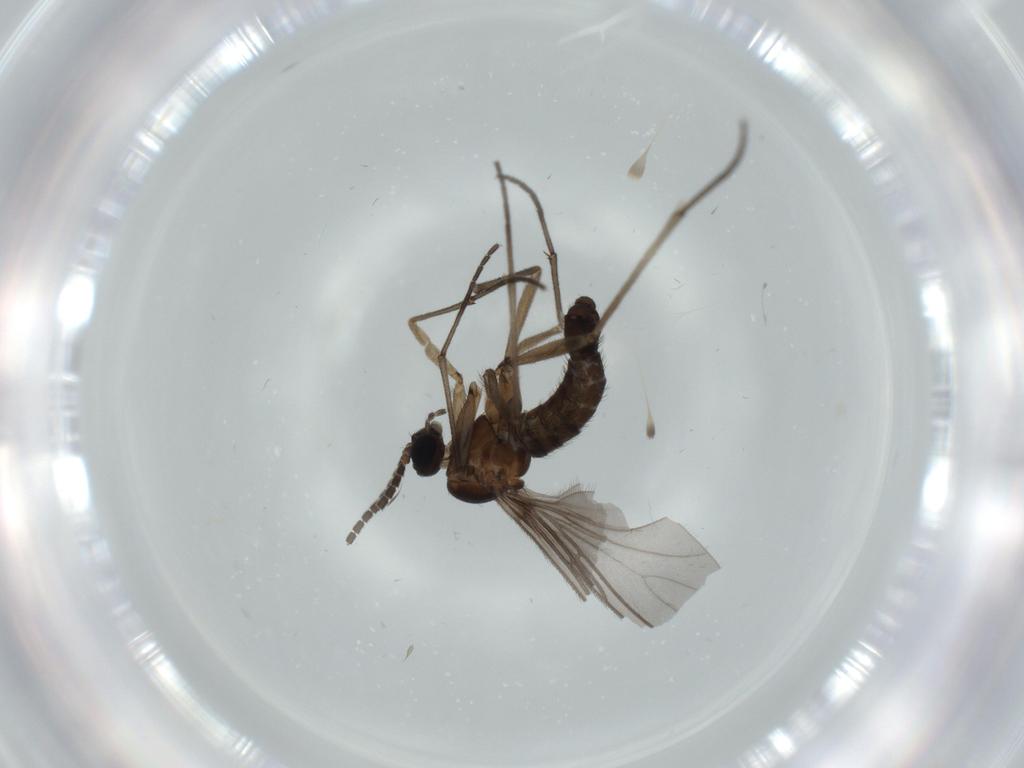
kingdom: Animalia
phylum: Arthropoda
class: Insecta
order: Diptera
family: Sciaridae
